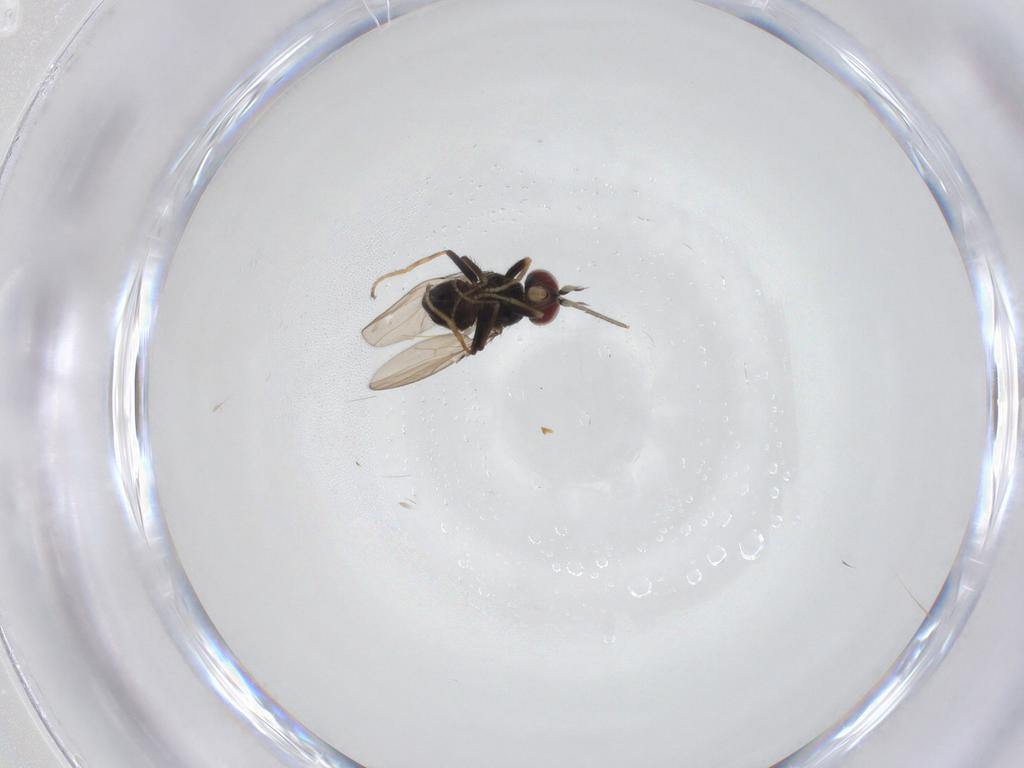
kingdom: Animalia
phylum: Arthropoda
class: Insecta
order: Diptera
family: Ephydridae
